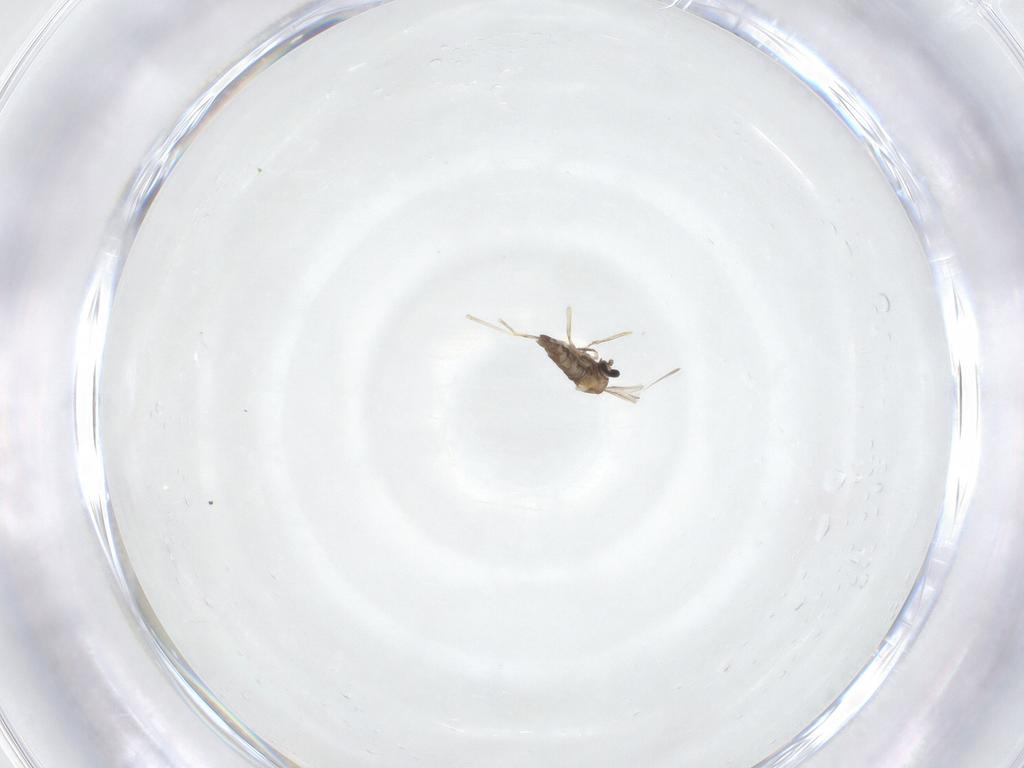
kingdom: Animalia
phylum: Arthropoda
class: Insecta
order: Diptera
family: Cecidomyiidae
